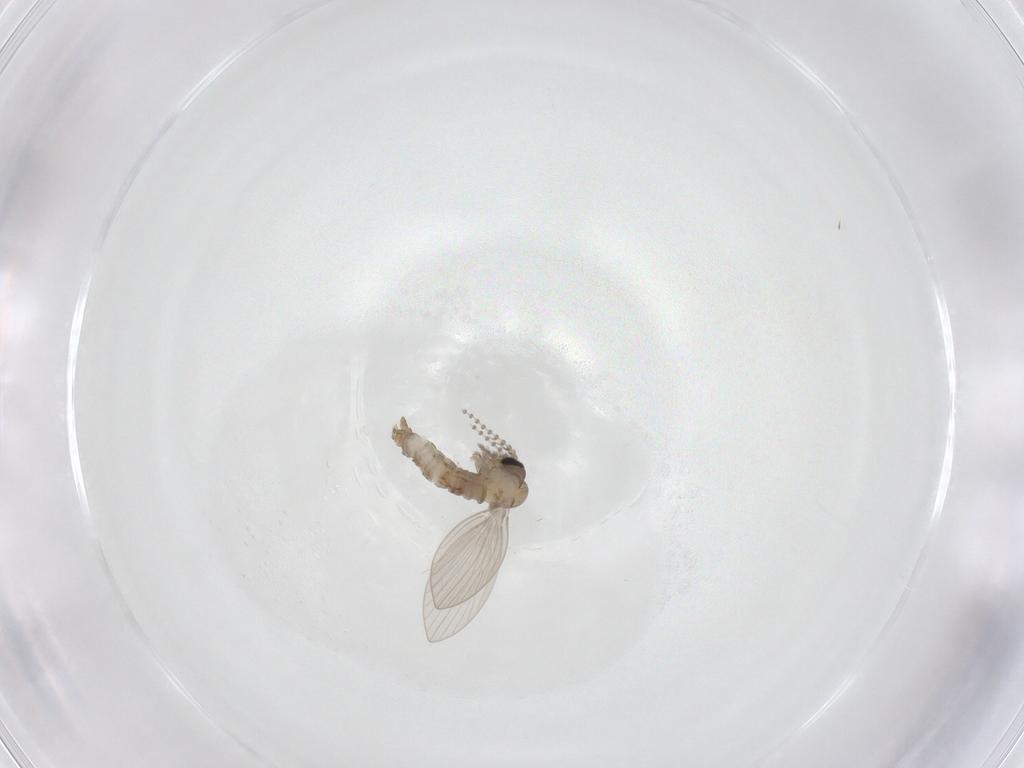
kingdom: Animalia
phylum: Arthropoda
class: Insecta
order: Diptera
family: Psychodidae
